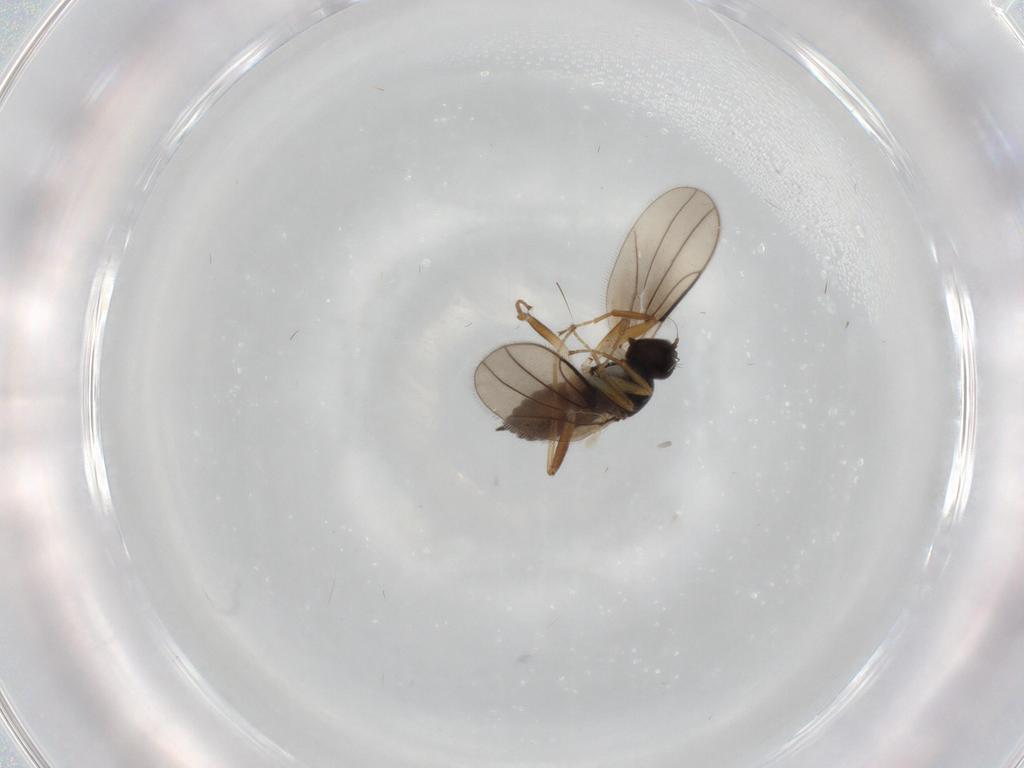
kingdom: Animalia
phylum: Arthropoda
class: Insecta
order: Diptera
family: Hybotidae
